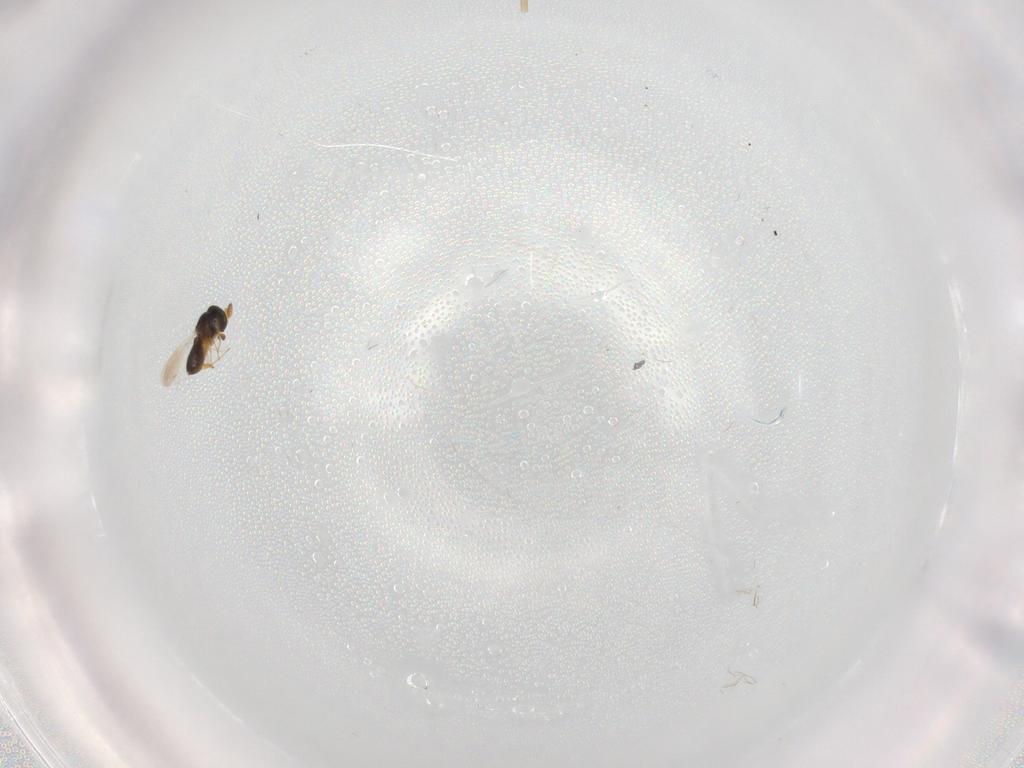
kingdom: Animalia
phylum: Arthropoda
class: Insecta
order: Hymenoptera
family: Platygastridae
